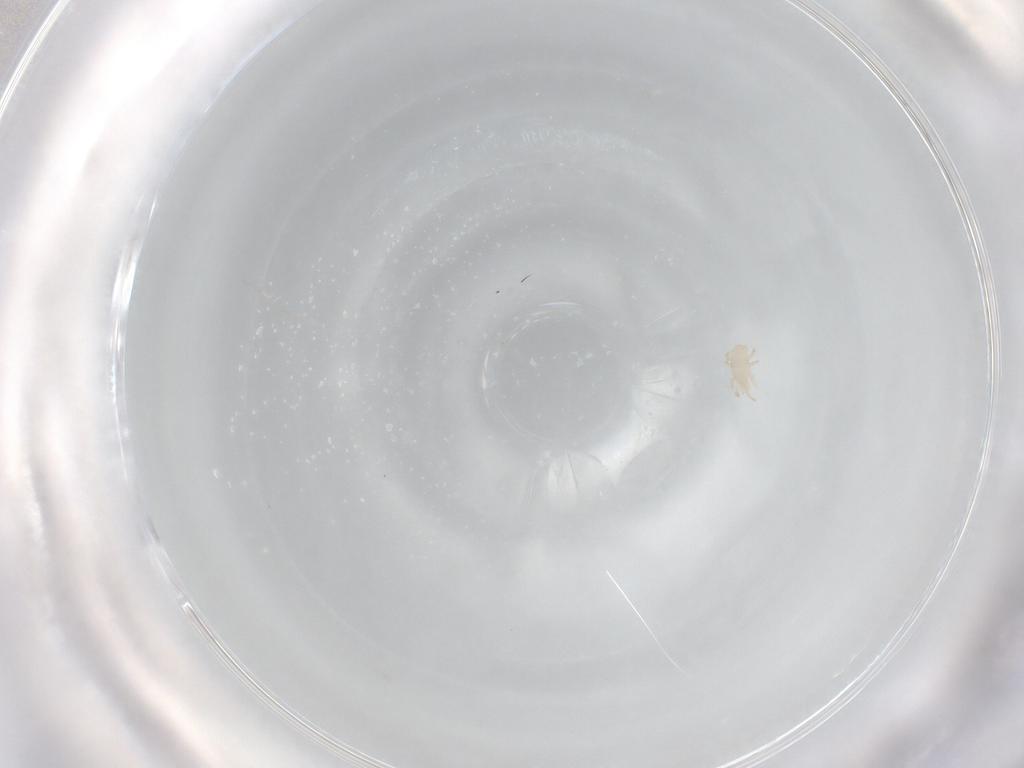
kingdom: Animalia
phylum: Arthropoda
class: Arachnida
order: Mesostigmata
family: Digamasellidae
